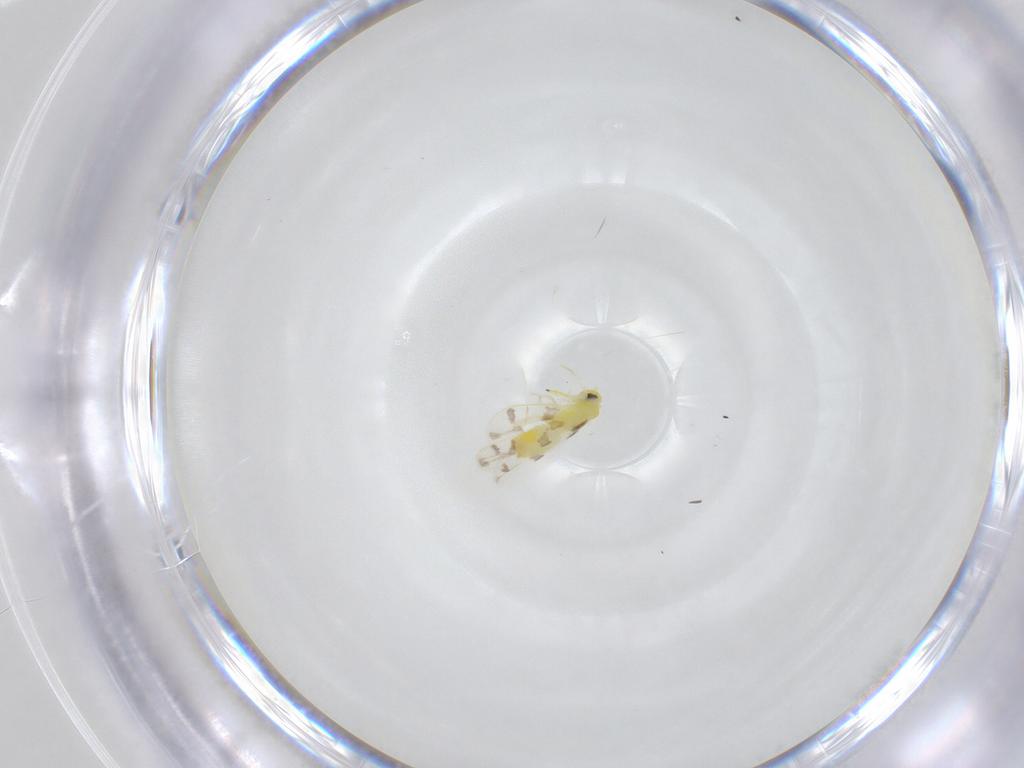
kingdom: Animalia
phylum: Arthropoda
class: Insecta
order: Hemiptera
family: Aleyrodidae
